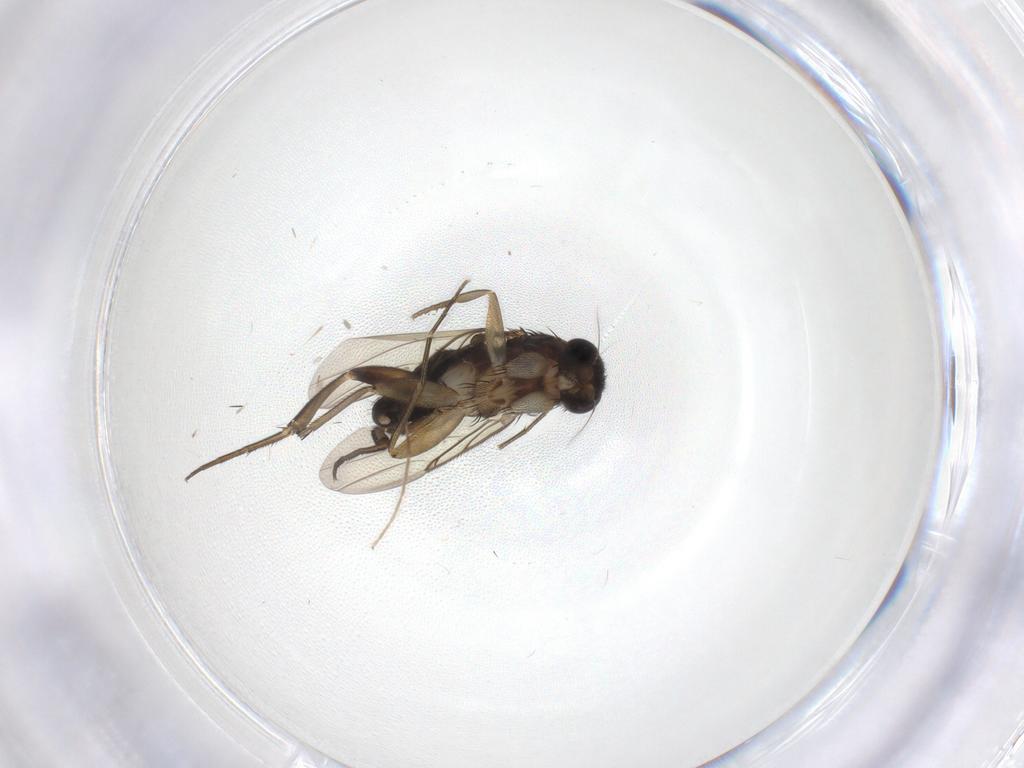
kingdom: Animalia
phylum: Arthropoda
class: Insecta
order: Diptera
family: Phoridae
